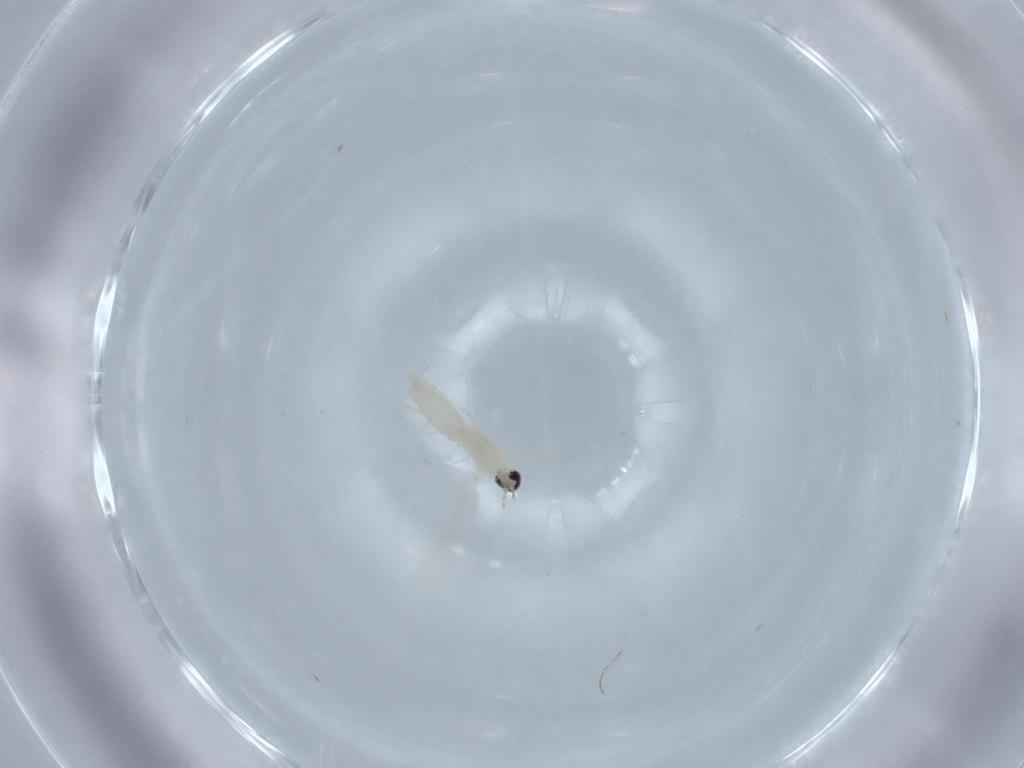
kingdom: Animalia
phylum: Arthropoda
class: Insecta
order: Diptera
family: Cecidomyiidae
